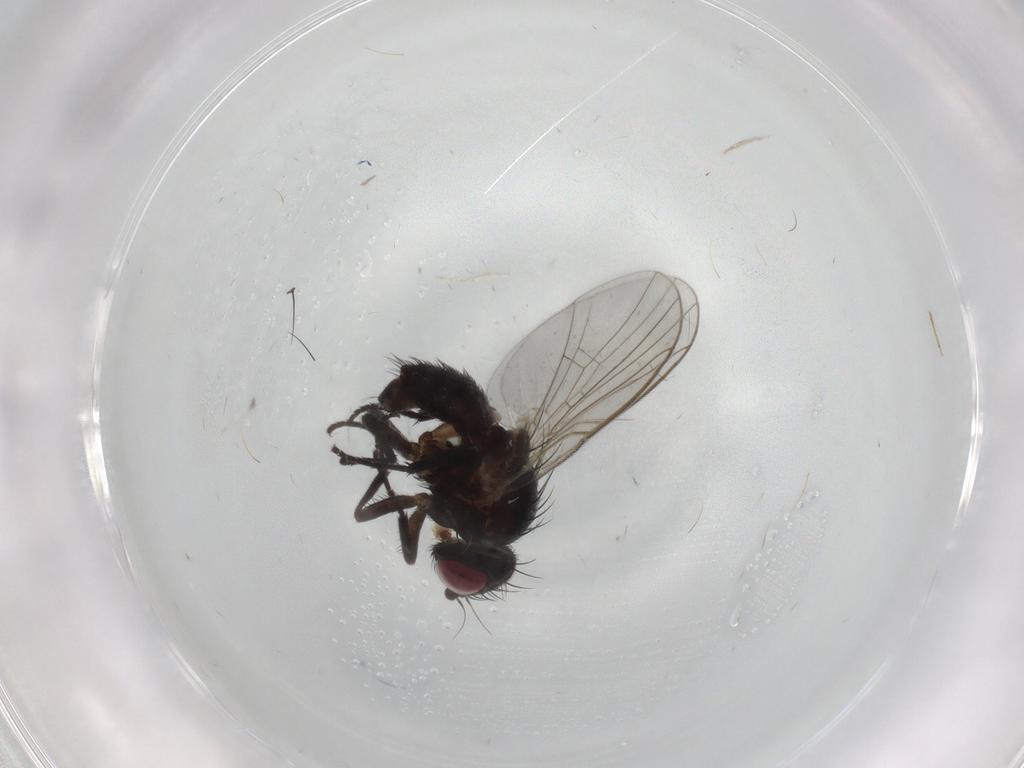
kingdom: Animalia
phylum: Arthropoda
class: Insecta
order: Diptera
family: Agromyzidae
